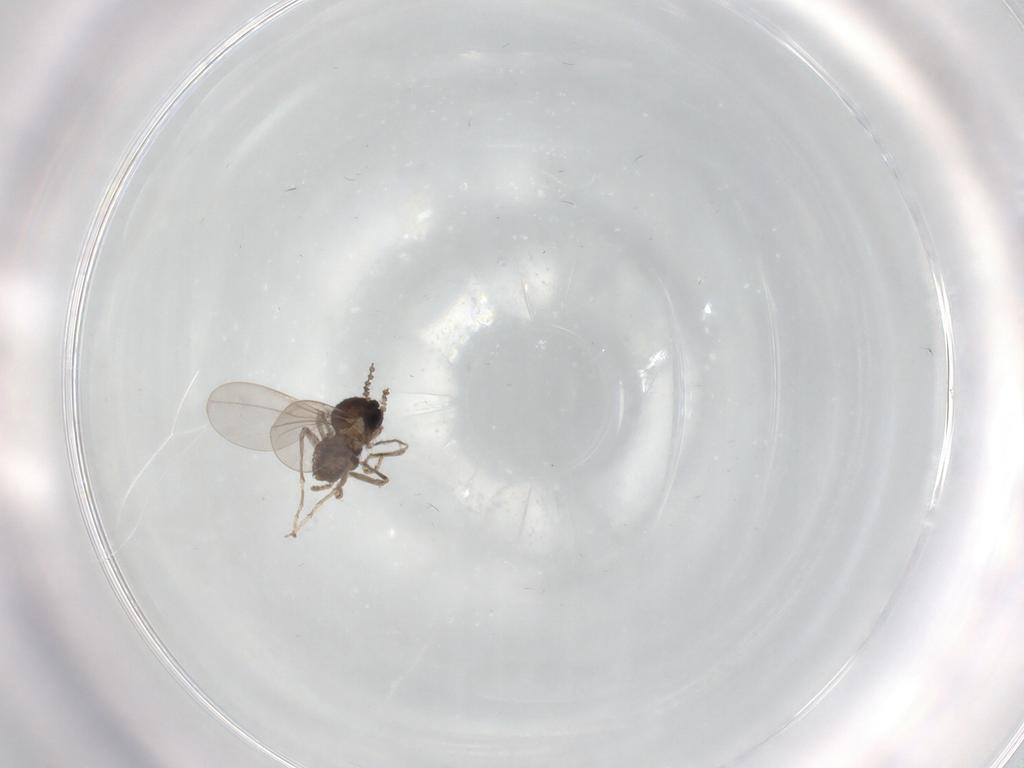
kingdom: Animalia
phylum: Arthropoda
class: Insecta
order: Diptera
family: Cecidomyiidae
